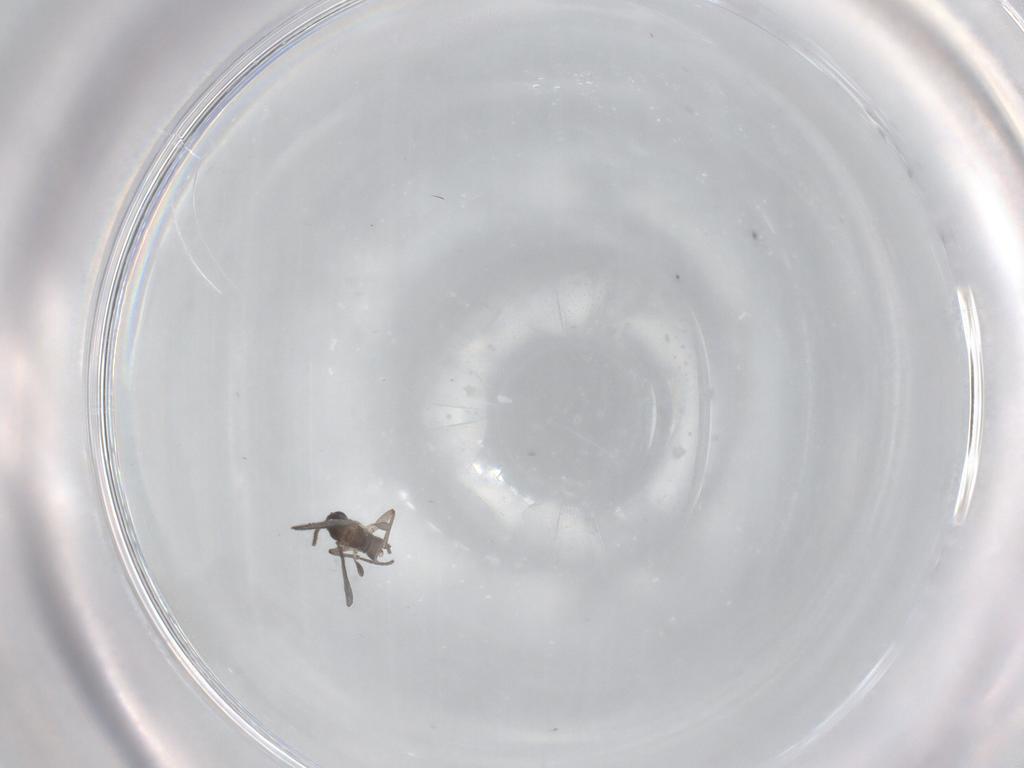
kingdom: Animalia
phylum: Arthropoda
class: Insecta
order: Diptera
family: Sciaridae
